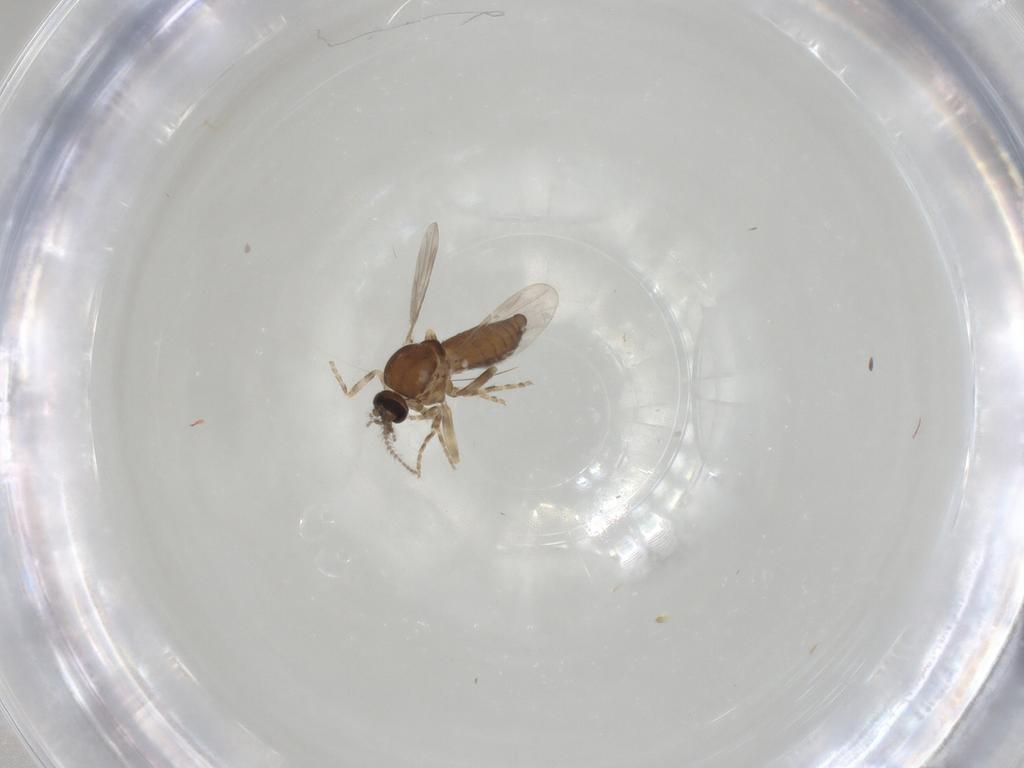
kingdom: Animalia
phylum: Arthropoda
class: Insecta
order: Diptera
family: Ceratopogonidae
